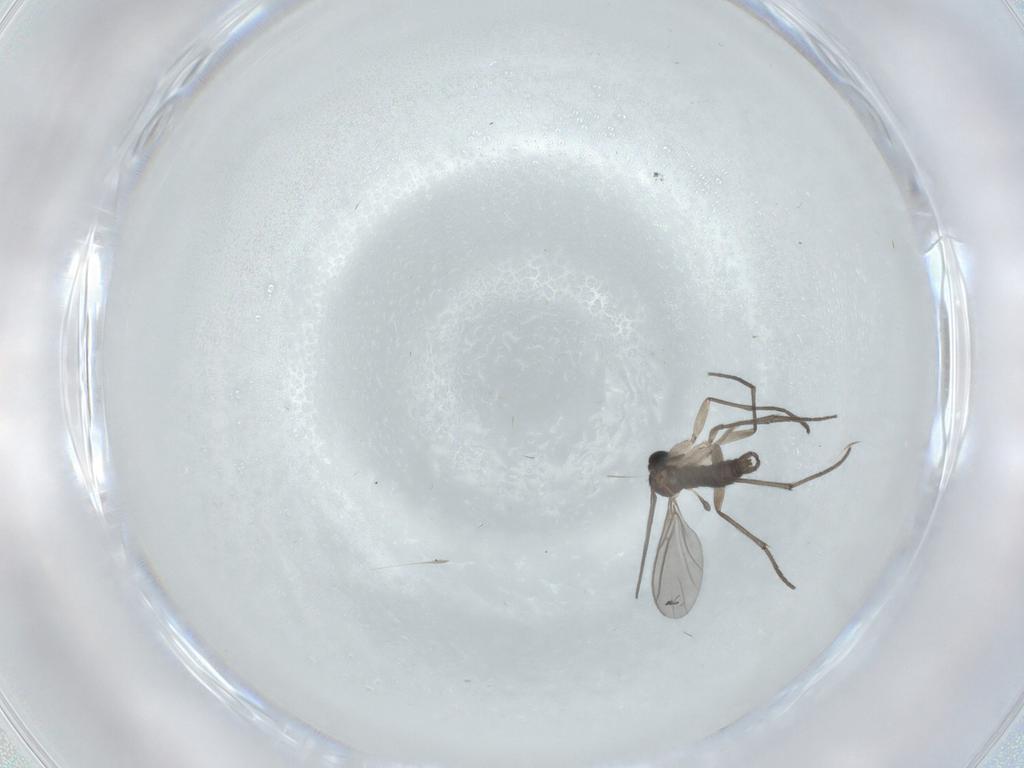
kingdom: Animalia
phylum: Arthropoda
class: Insecta
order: Diptera
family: Sciaridae
